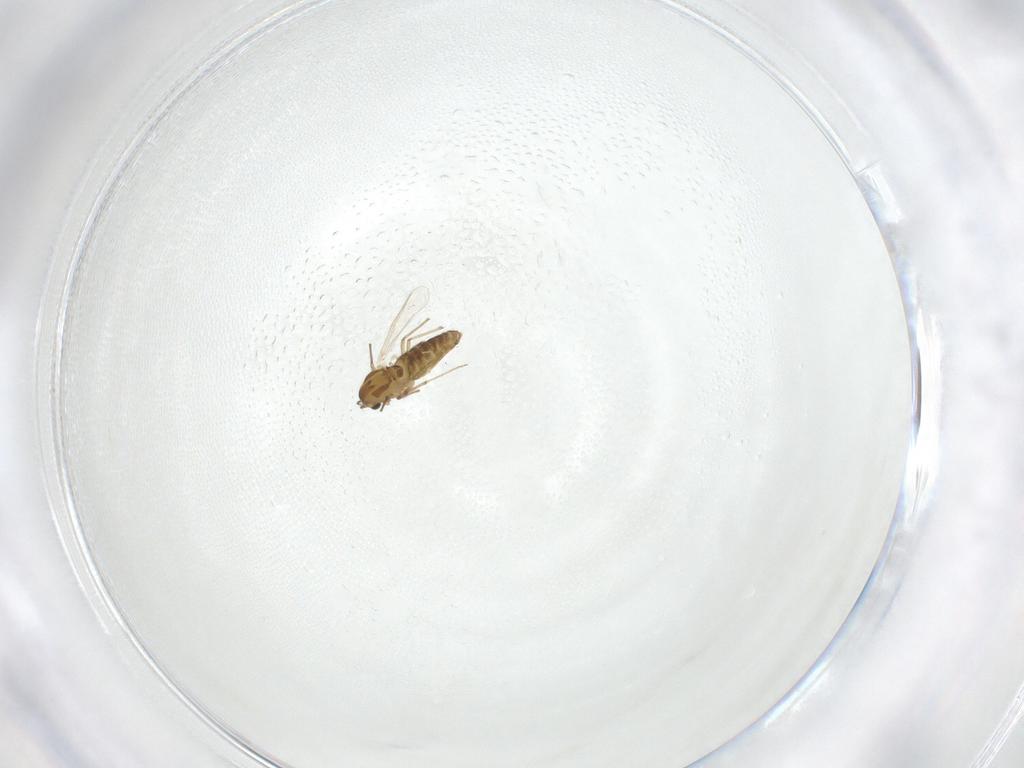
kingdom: Animalia
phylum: Arthropoda
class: Insecta
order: Diptera
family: Chironomidae
